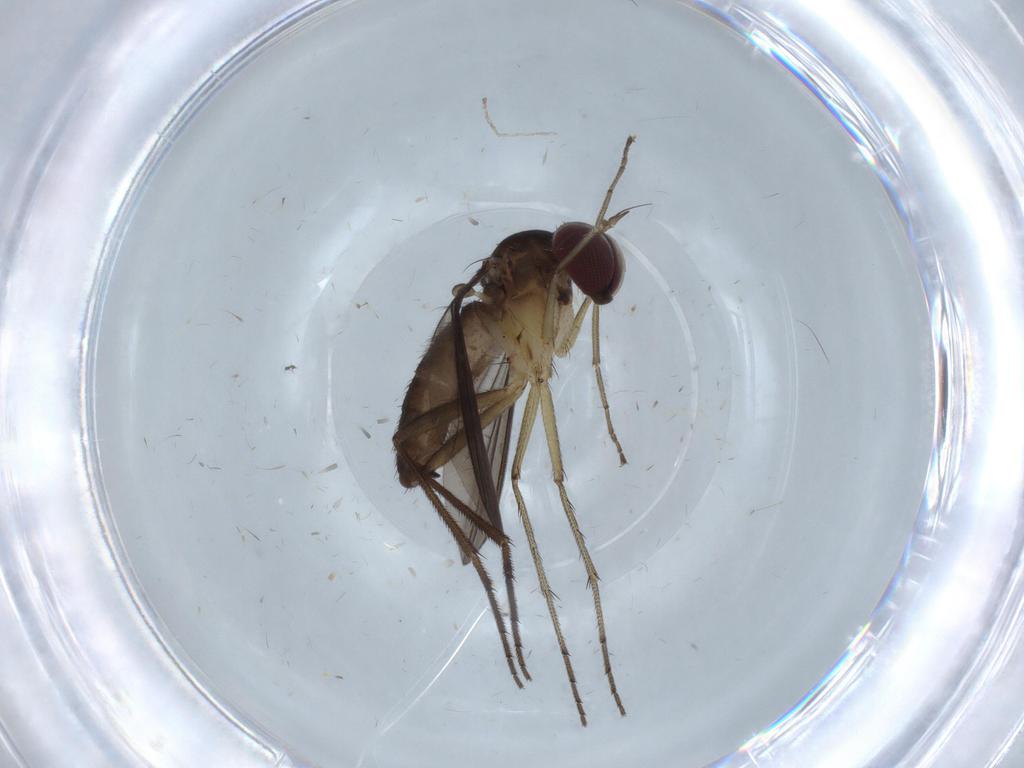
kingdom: Animalia
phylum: Arthropoda
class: Insecta
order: Diptera
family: Dolichopodidae
